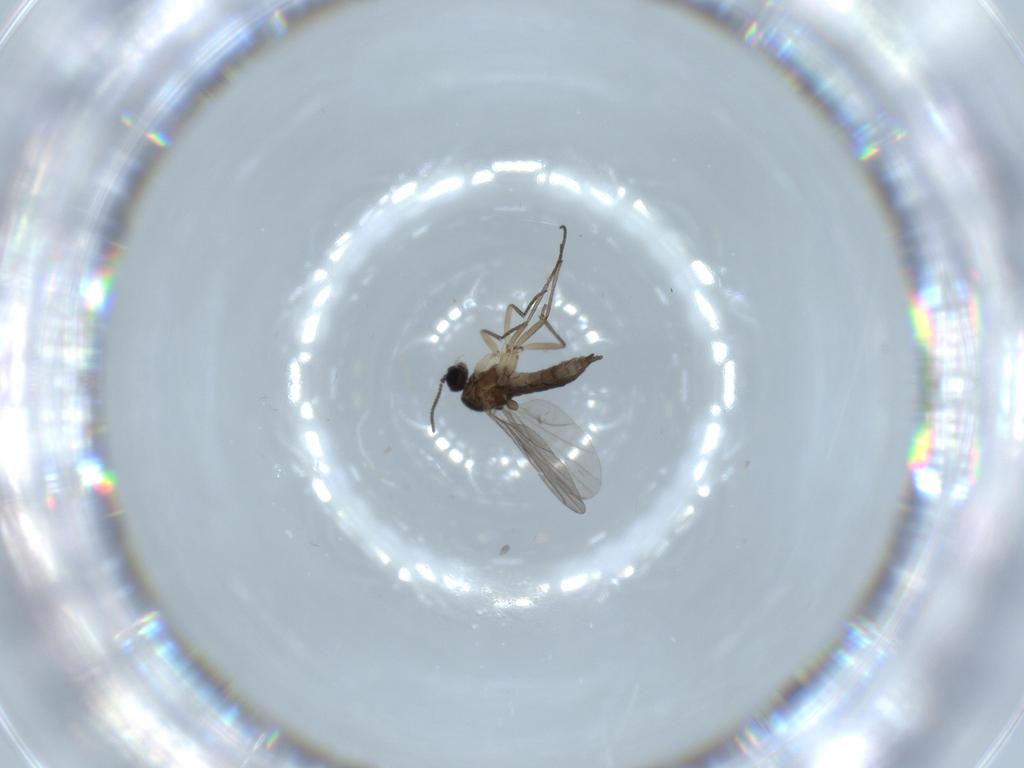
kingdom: Animalia
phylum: Arthropoda
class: Insecta
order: Diptera
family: Sciaridae
